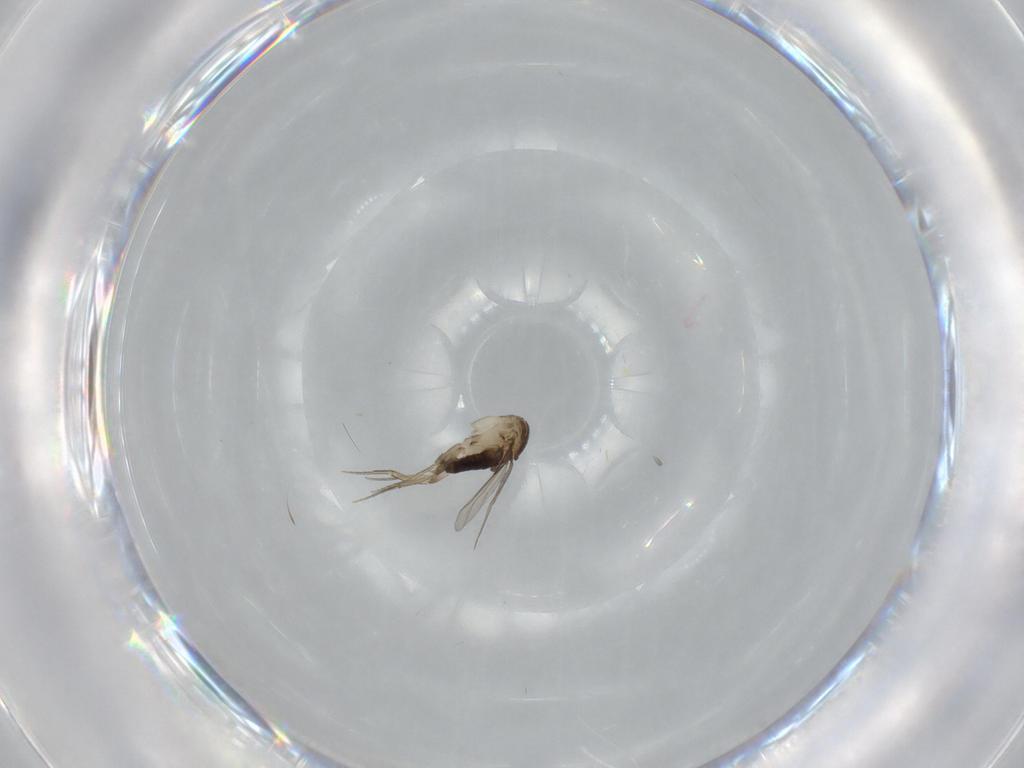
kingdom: Animalia
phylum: Arthropoda
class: Insecta
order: Diptera
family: Phoridae
